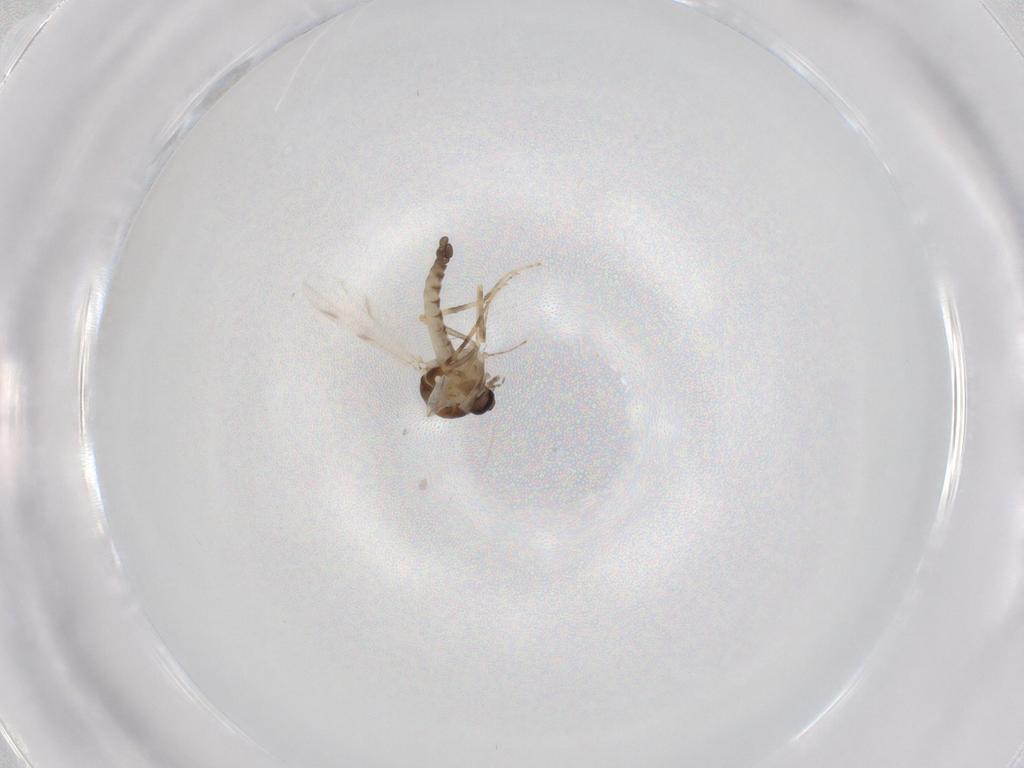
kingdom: Animalia
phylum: Arthropoda
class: Insecta
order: Diptera
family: Ceratopogonidae
